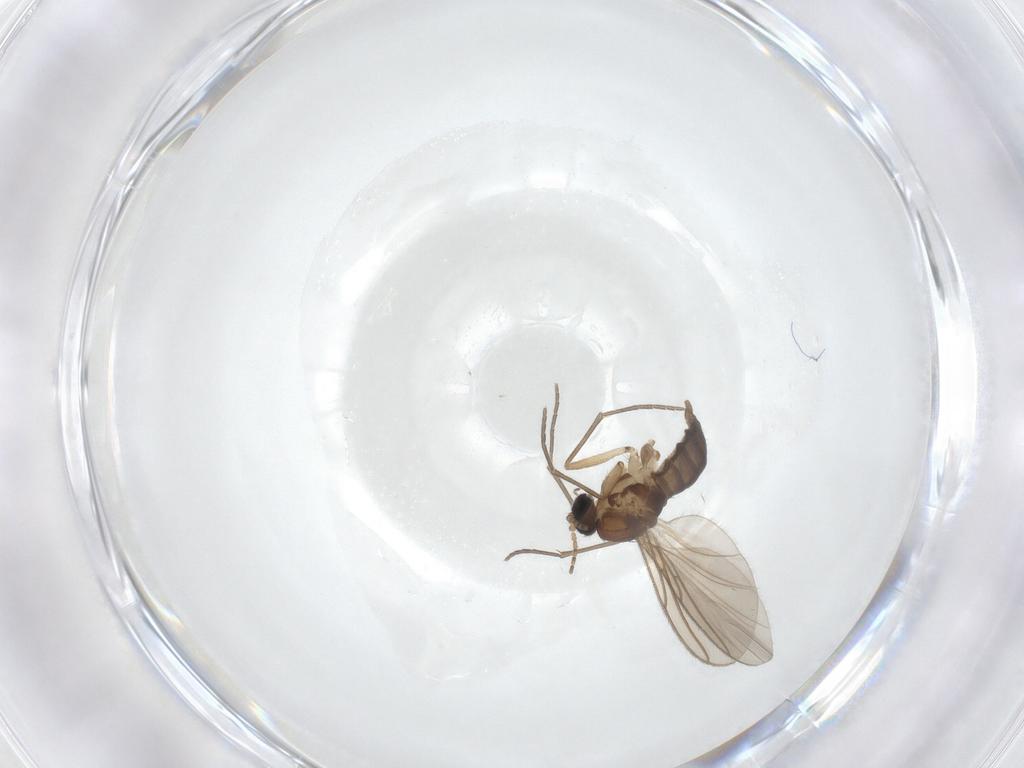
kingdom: Animalia
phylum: Arthropoda
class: Insecta
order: Diptera
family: Sciaridae
